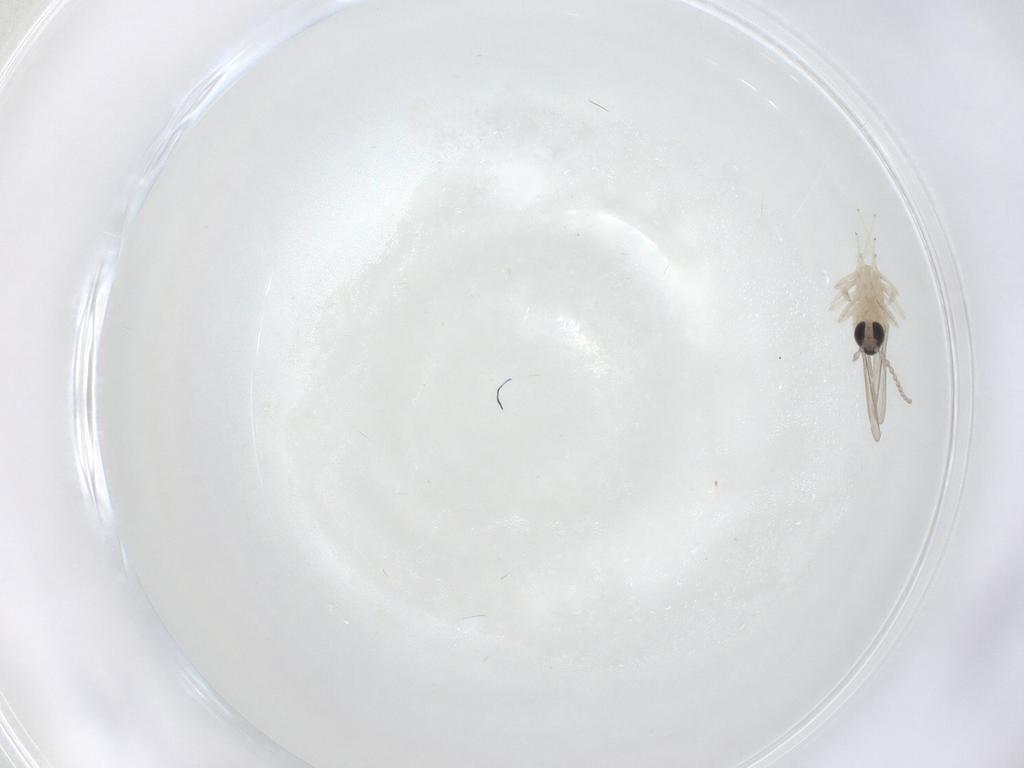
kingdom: Animalia
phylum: Arthropoda
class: Insecta
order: Diptera
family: Cecidomyiidae
